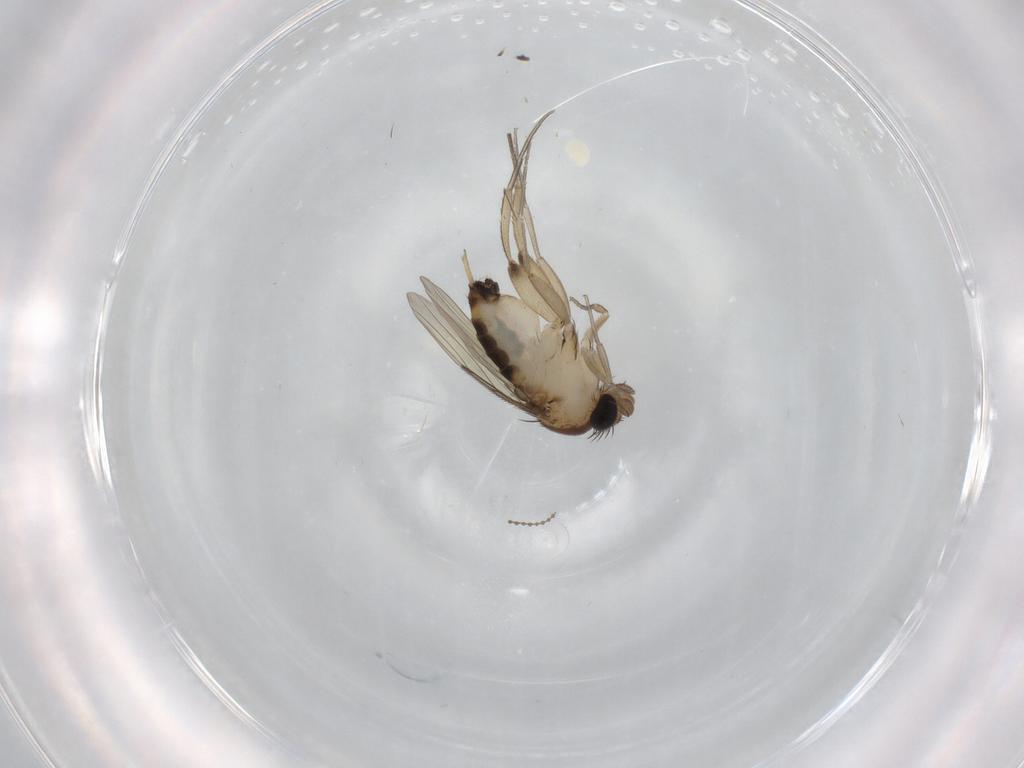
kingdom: Animalia
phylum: Arthropoda
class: Insecta
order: Diptera
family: Phoridae
